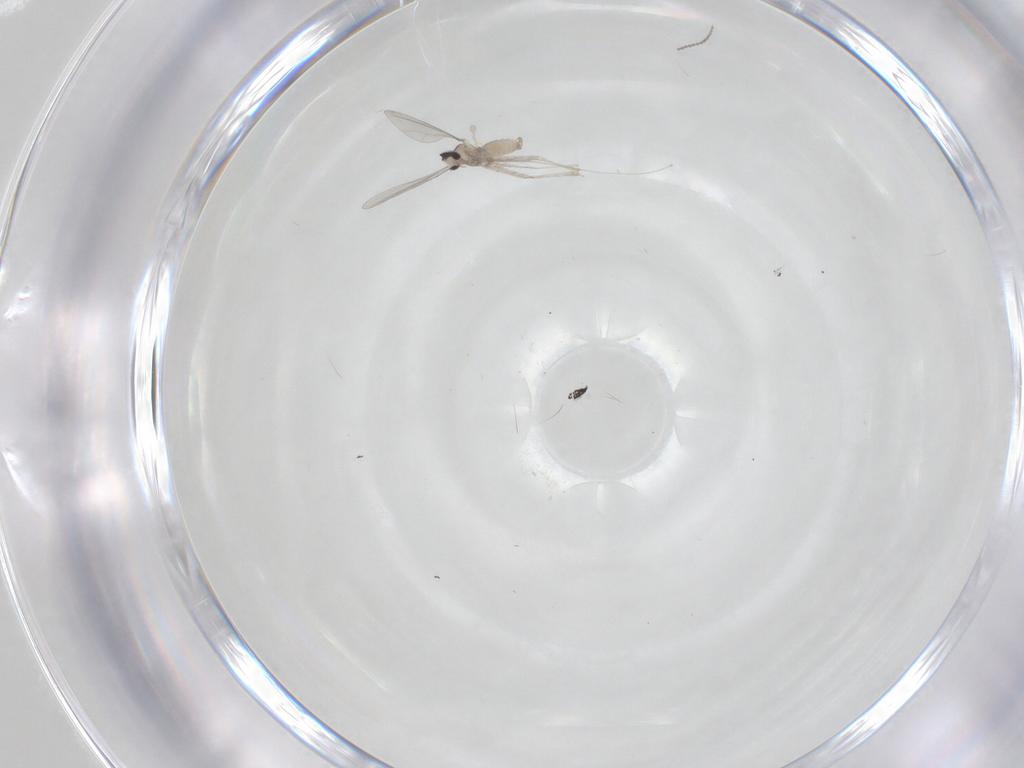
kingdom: Animalia
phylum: Arthropoda
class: Insecta
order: Diptera
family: Cecidomyiidae
